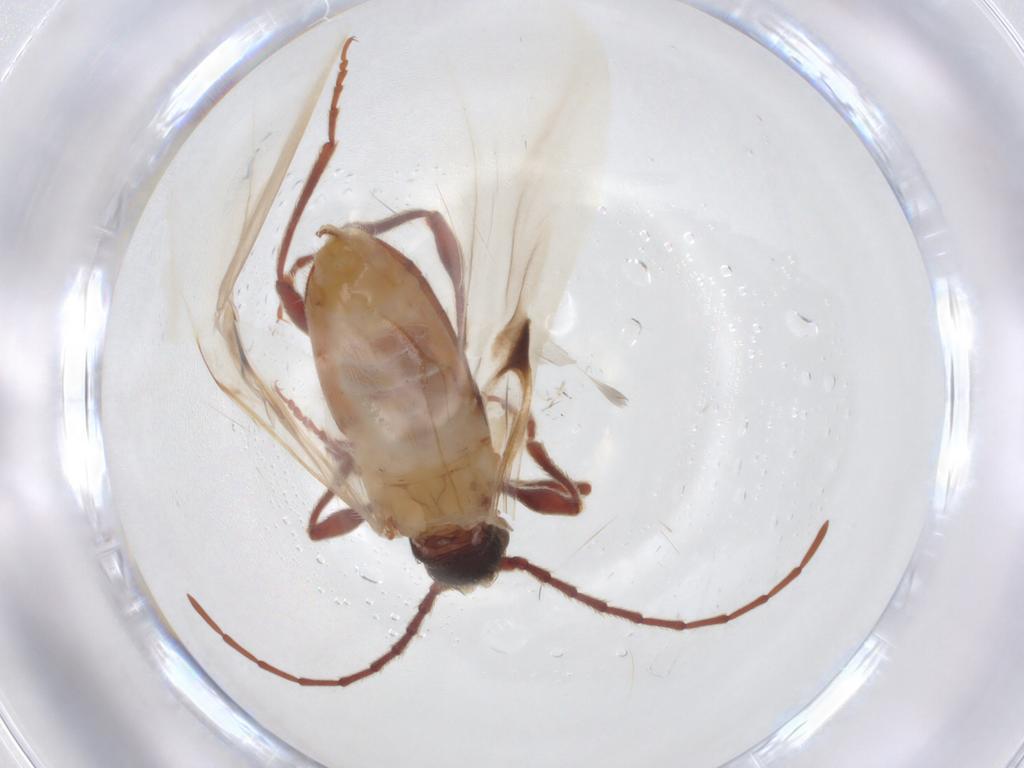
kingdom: Animalia
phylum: Arthropoda
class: Insecta
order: Coleoptera
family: Ptinidae
